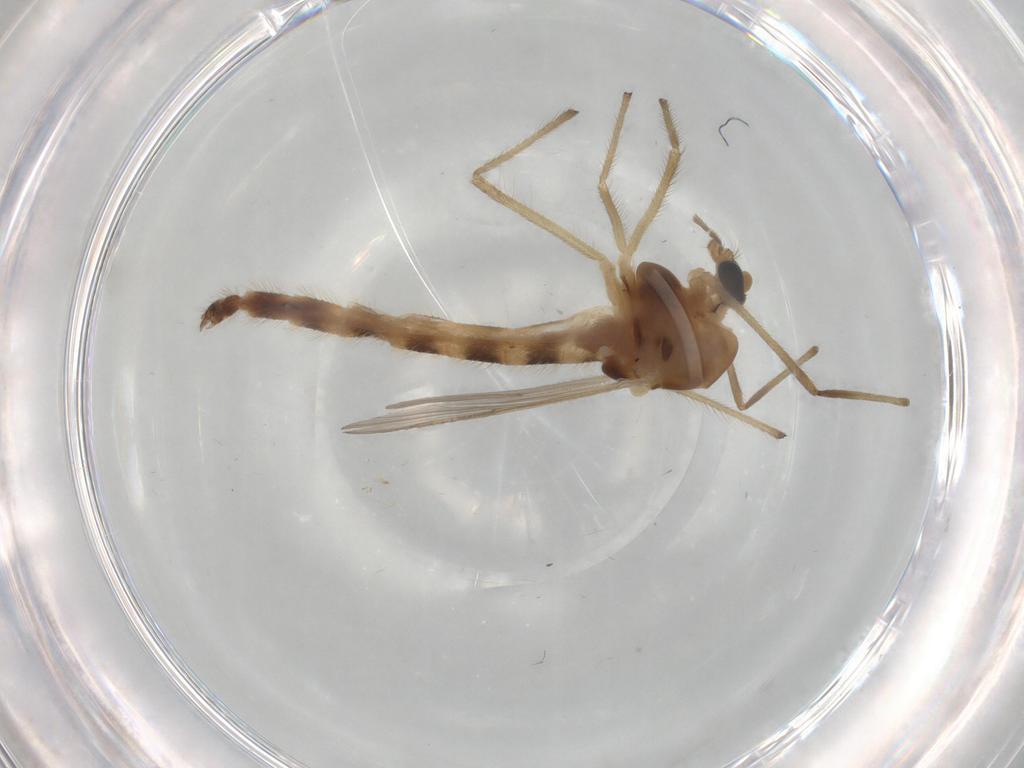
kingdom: Animalia
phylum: Arthropoda
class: Insecta
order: Diptera
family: Chironomidae
